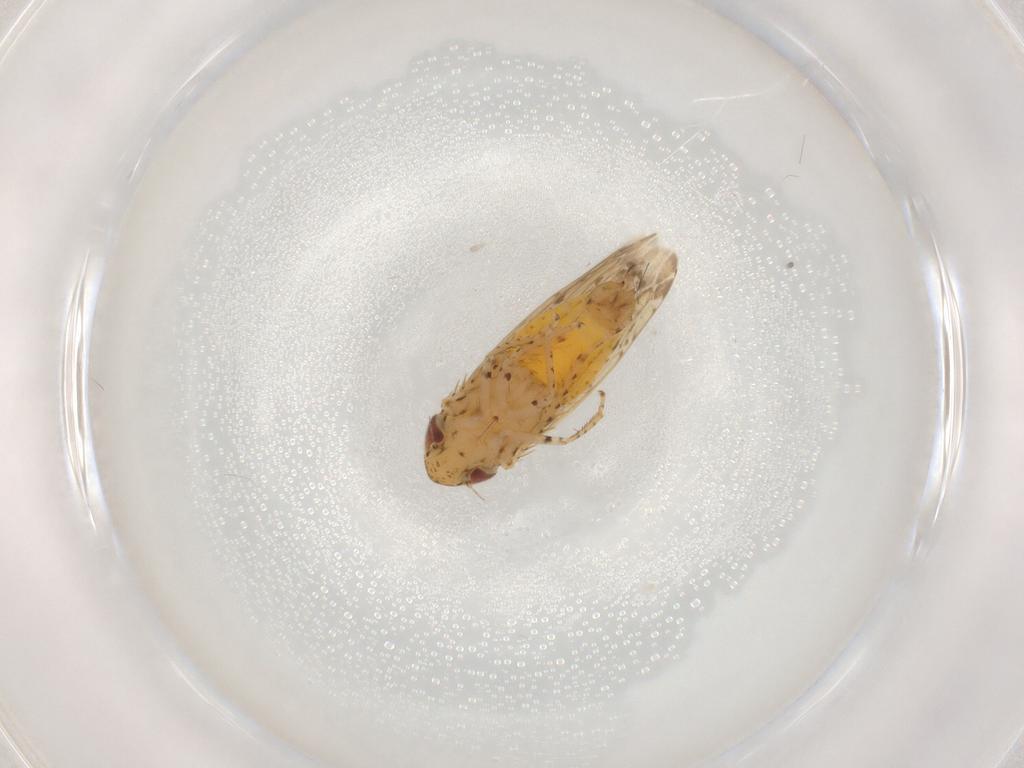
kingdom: Animalia
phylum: Arthropoda
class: Insecta
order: Hemiptera
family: Cicadellidae
